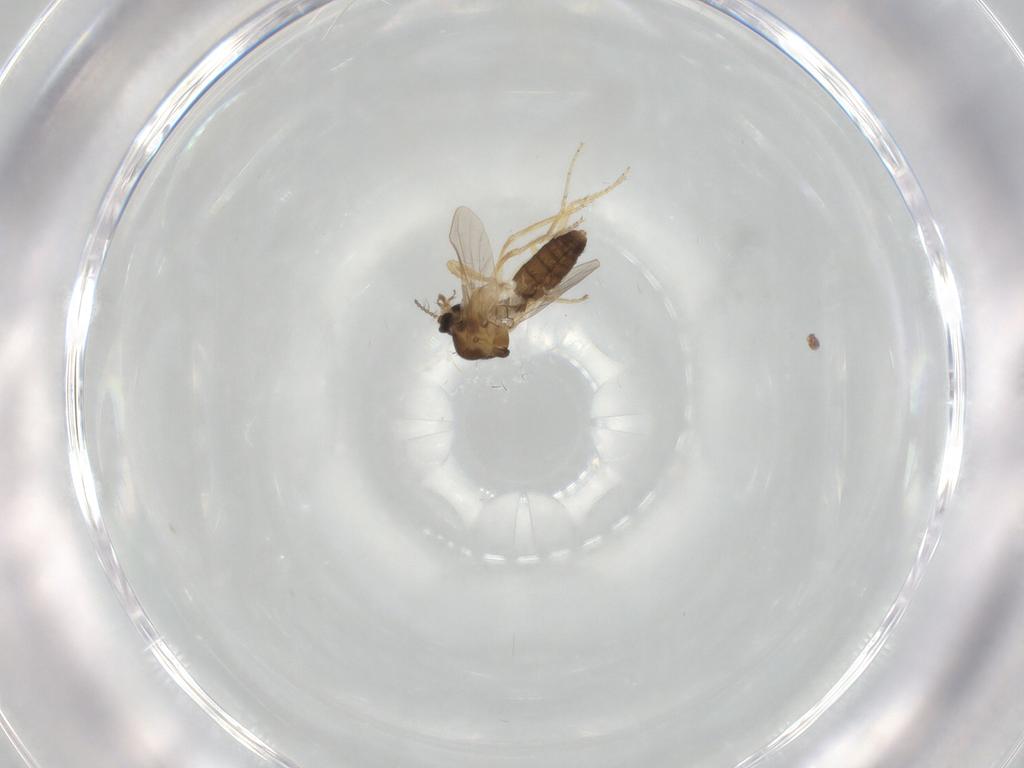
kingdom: Animalia
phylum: Arthropoda
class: Insecta
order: Diptera
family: Ceratopogonidae
